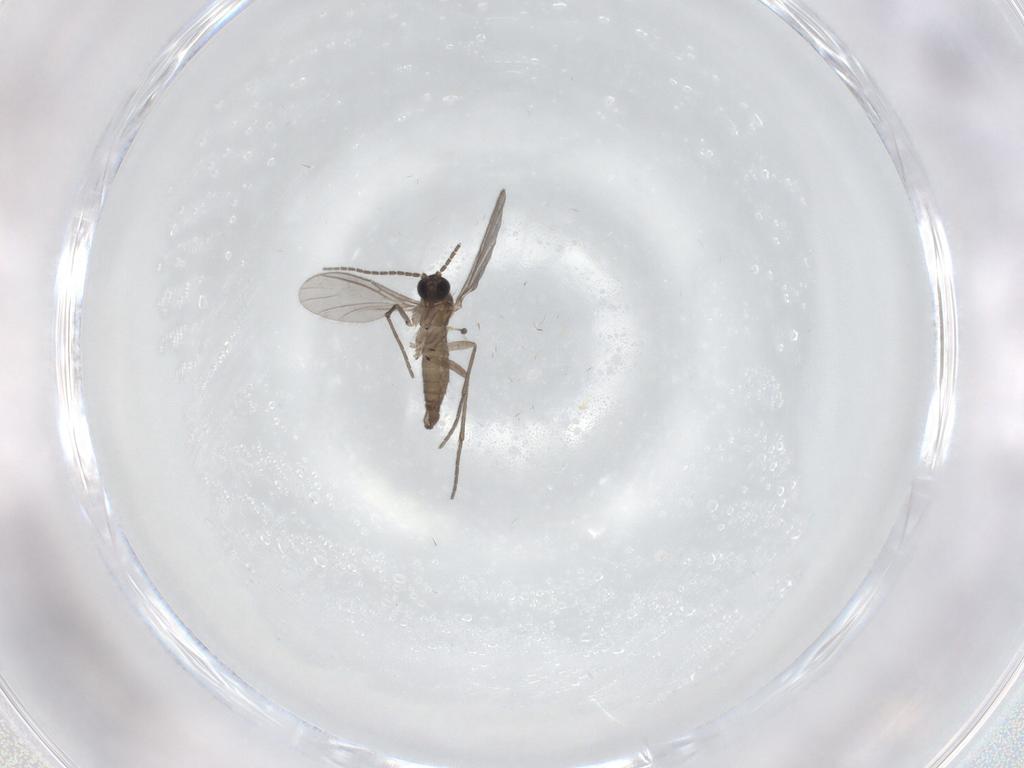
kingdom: Animalia
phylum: Arthropoda
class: Insecta
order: Diptera
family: Sciaridae
